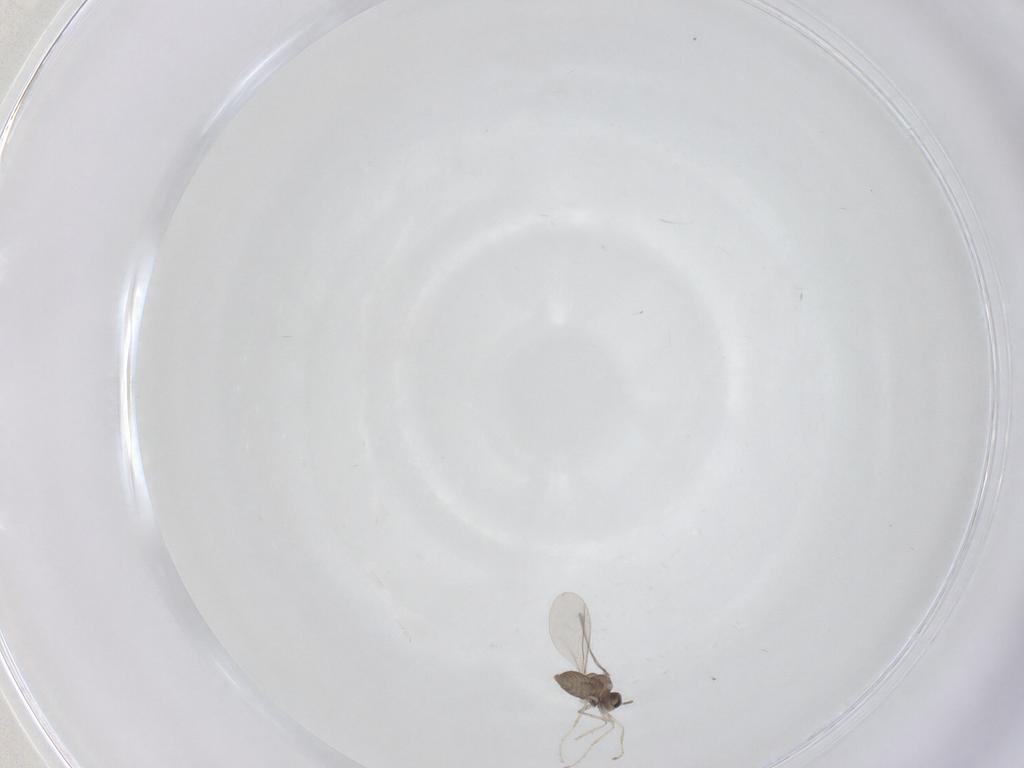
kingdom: Animalia
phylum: Arthropoda
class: Insecta
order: Diptera
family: Cecidomyiidae
